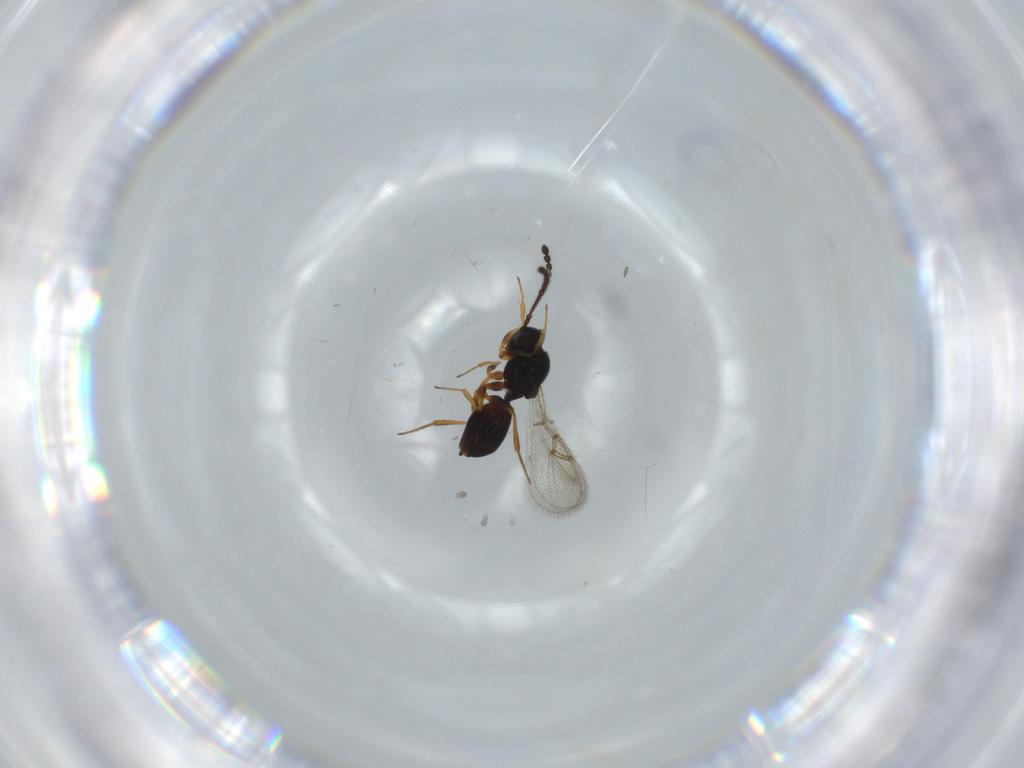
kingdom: Animalia
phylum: Arthropoda
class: Insecta
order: Hymenoptera
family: Figitidae
